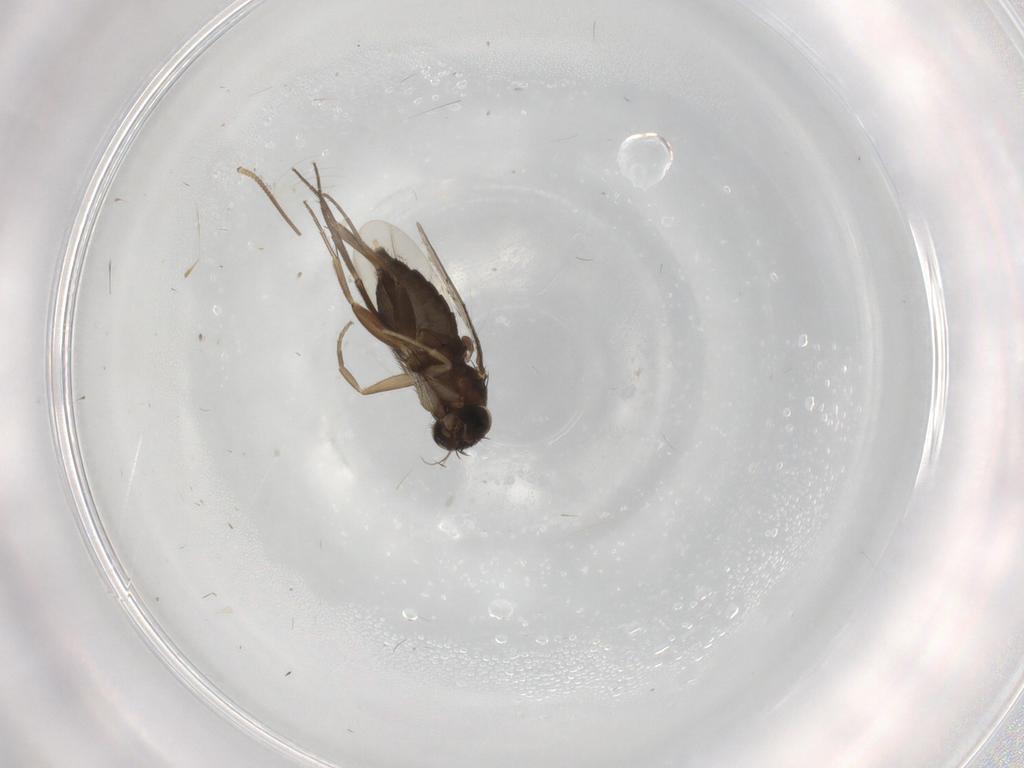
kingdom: Animalia
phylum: Arthropoda
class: Insecta
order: Diptera
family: Phoridae
